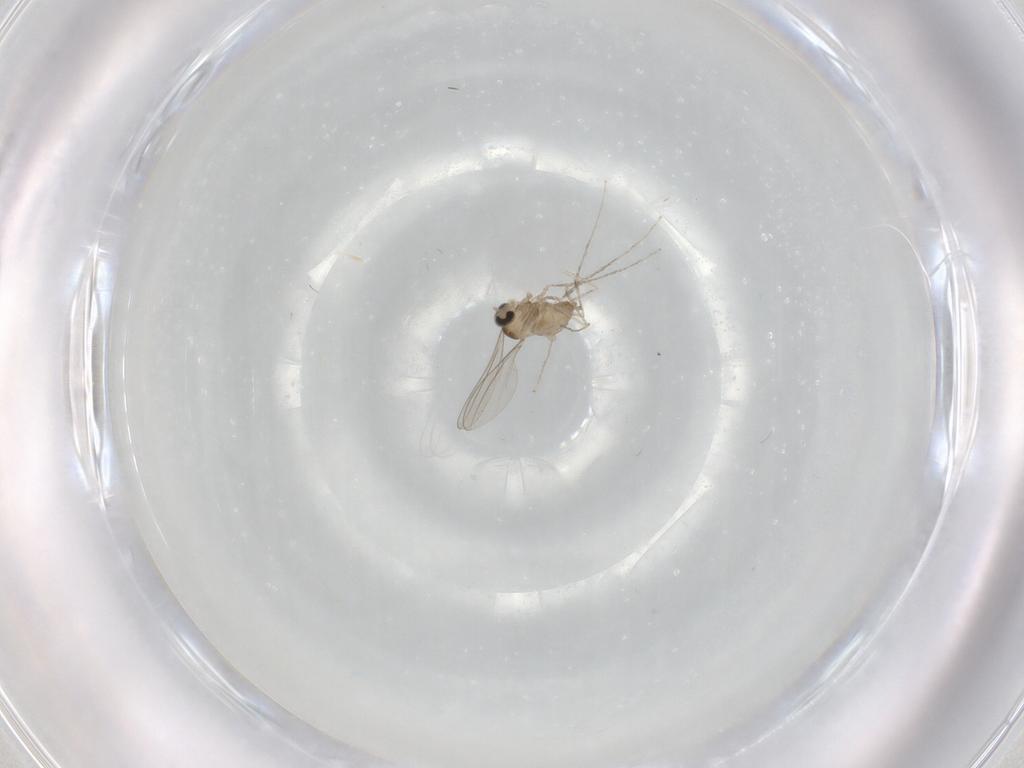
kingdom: Animalia
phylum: Arthropoda
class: Insecta
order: Diptera
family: Cecidomyiidae
